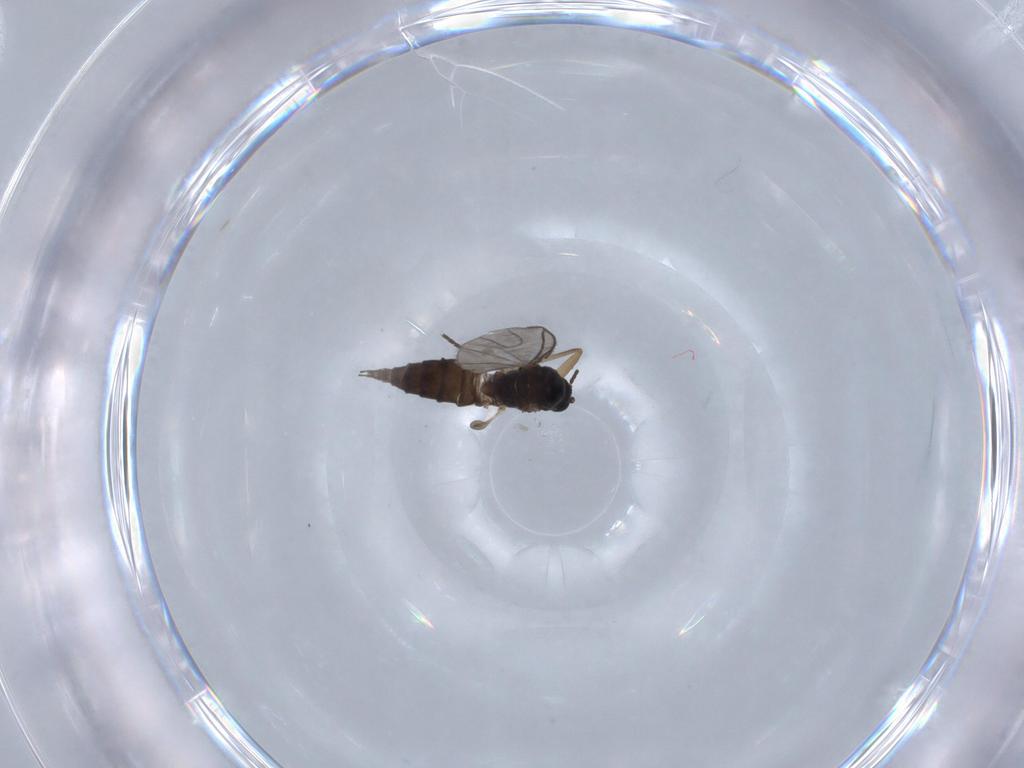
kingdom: Animalia
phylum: Arthropoda
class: Insecta
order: Diptera
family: Sciaridae
